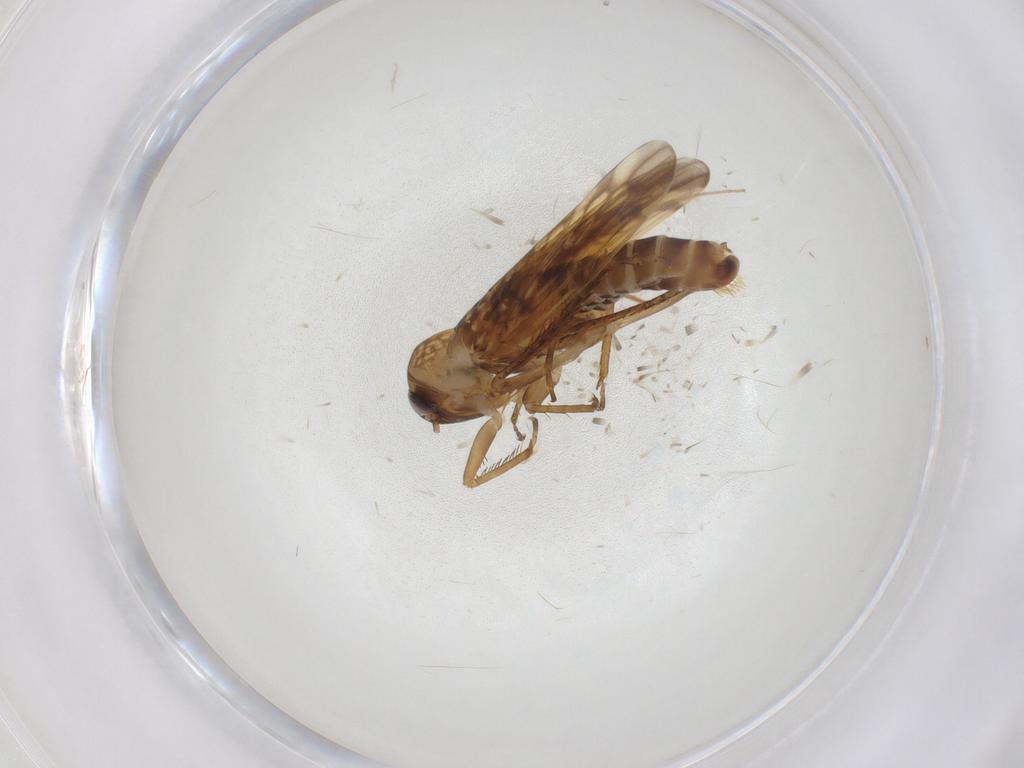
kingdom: Animalia
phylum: Arthropoda
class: Insecta
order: Hemiptera
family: Cicadellidae
